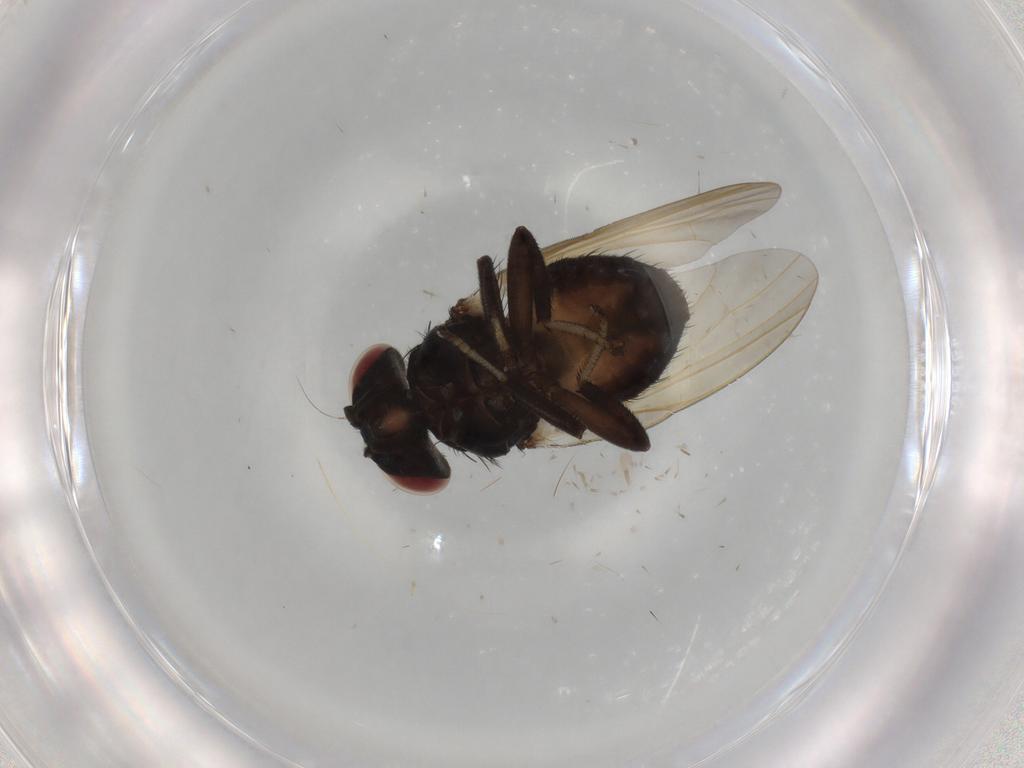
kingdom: Animalia
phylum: Arthropoda
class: Insecta
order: Diptera
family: Lonchaeidae
